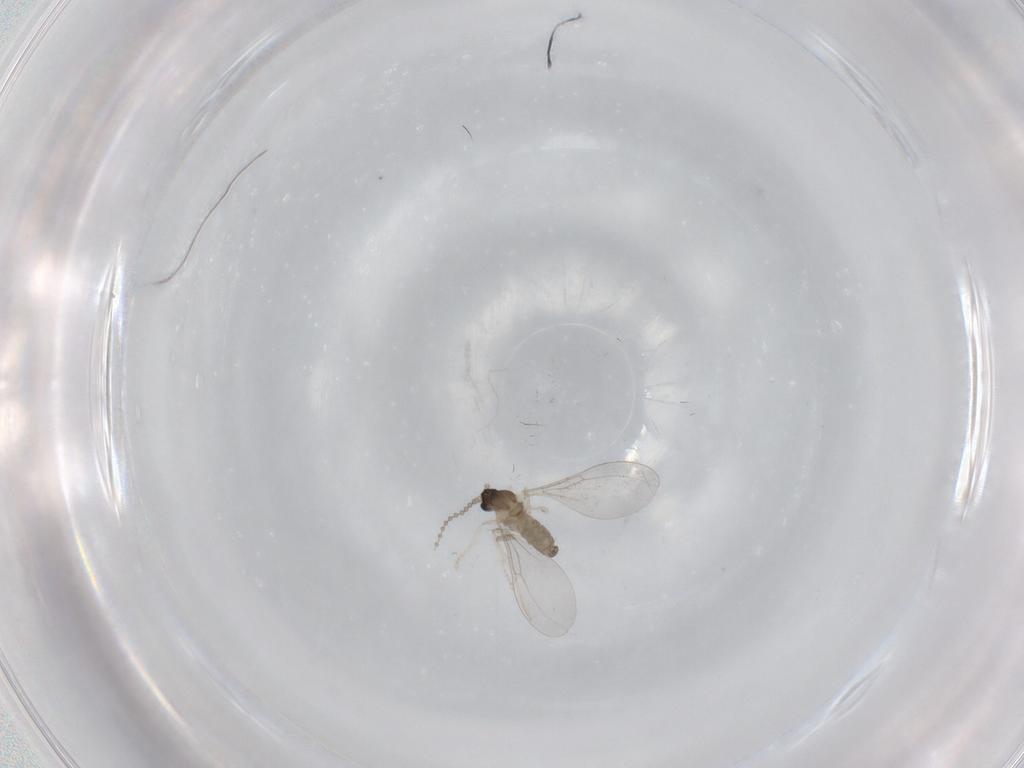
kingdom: Animalia
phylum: Arthropoda
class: Insecta
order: Diptera
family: Cecidomyiidae
